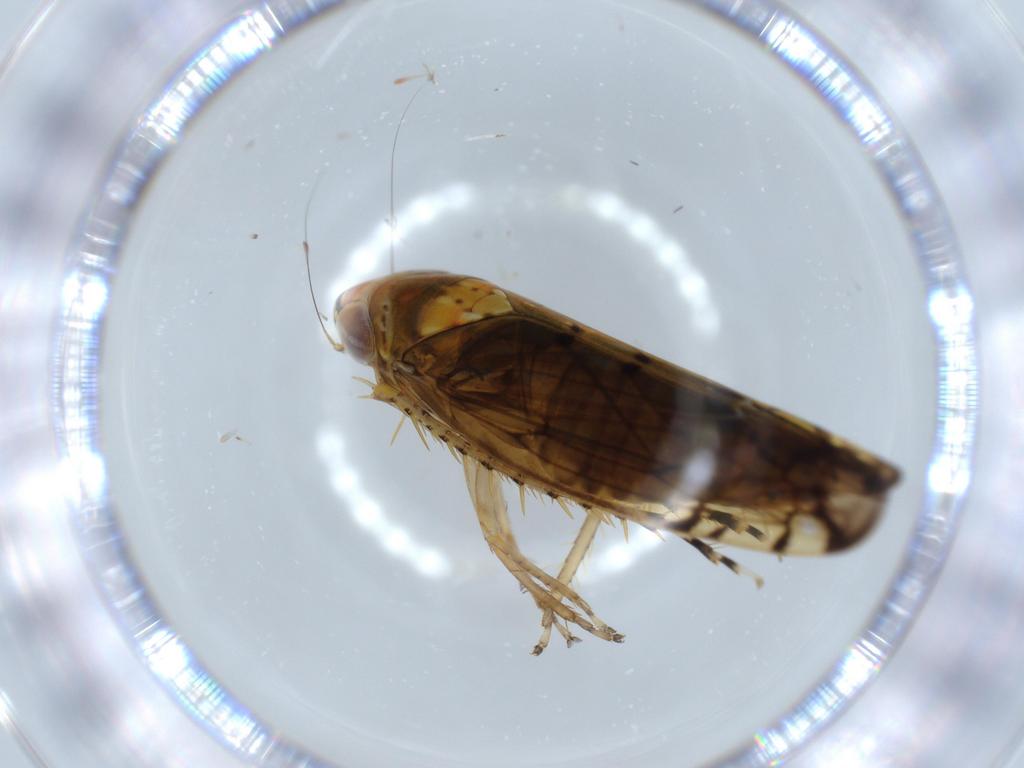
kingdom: Animalia
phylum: Arthropoda
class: Insecta
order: Hemiptera
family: Cicadellidae
